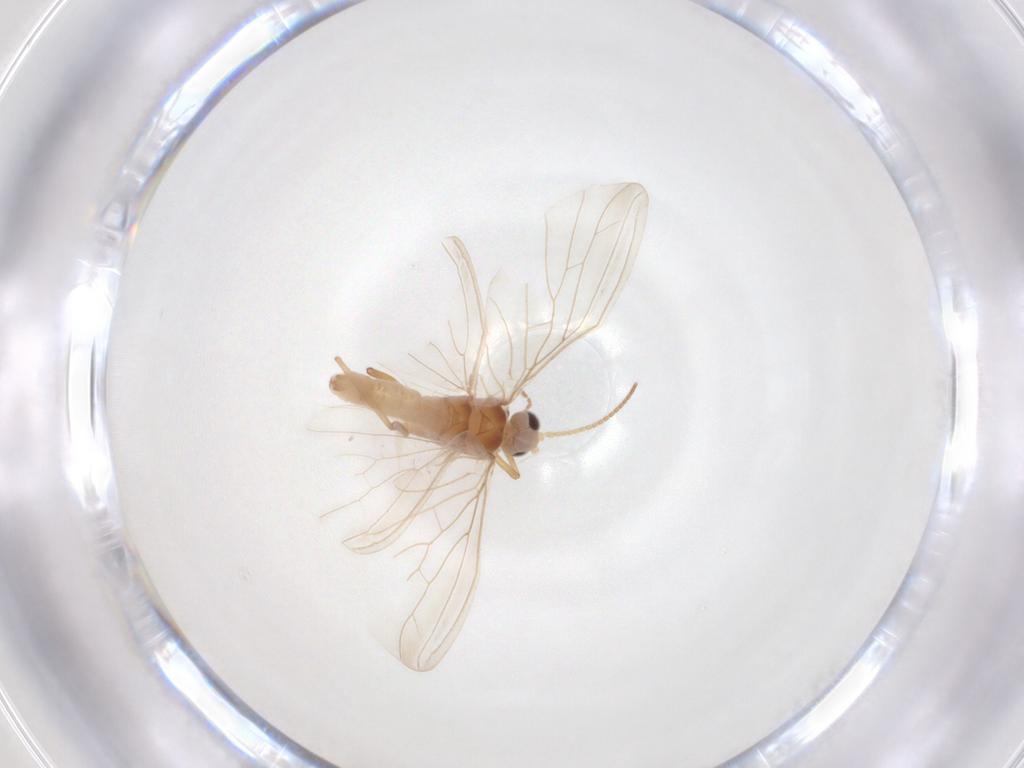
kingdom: Animalia
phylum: Arthropoda
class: Insecta
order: Neuroptera
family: Coniopterygidae
